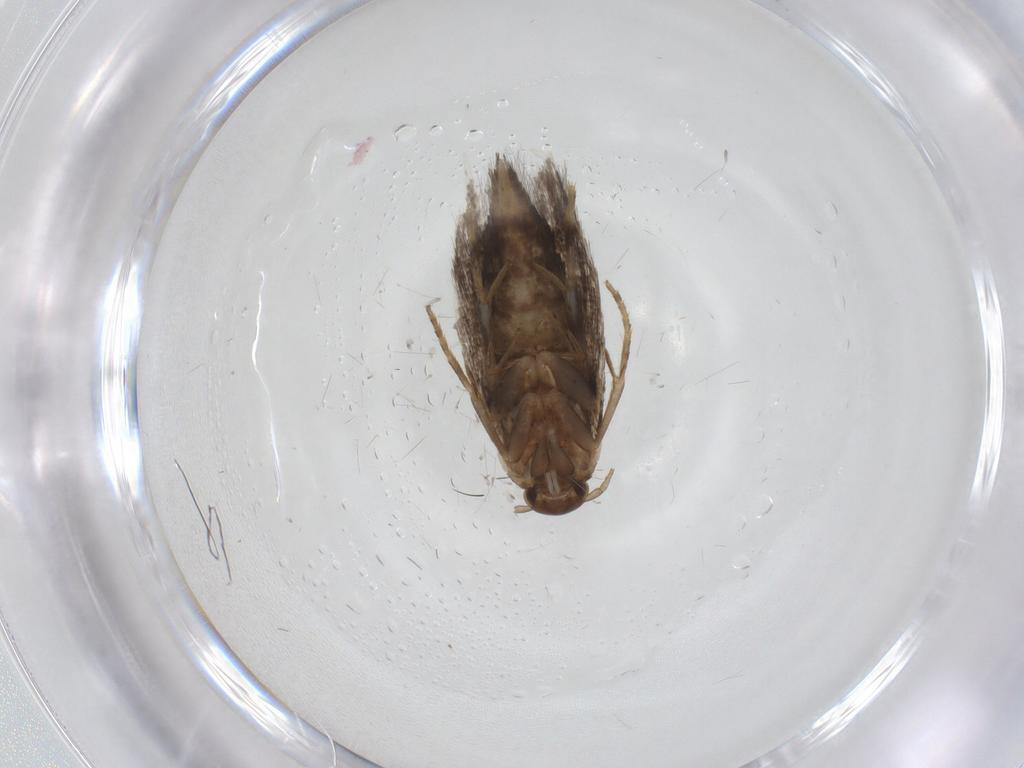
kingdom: Animalia
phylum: Arthropoda
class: Insecta
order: Lepidoptera
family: Elachistidae
